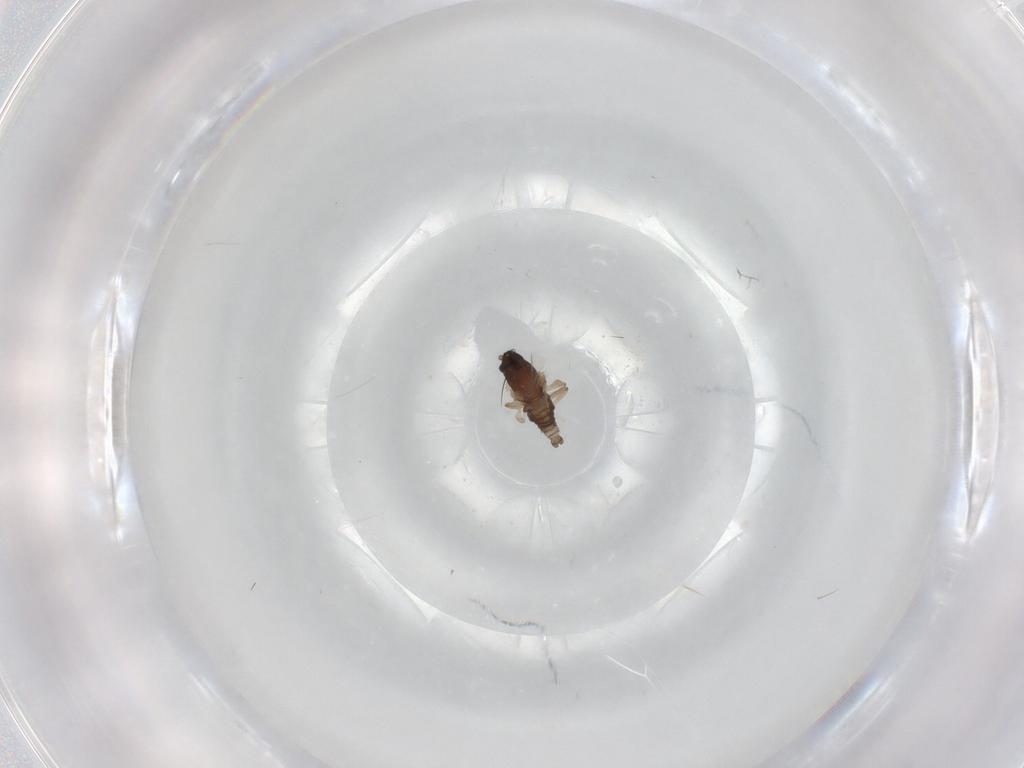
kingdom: Animalia
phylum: Arthropoda
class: Insecta
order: Diptera
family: Cecidomyiidae
